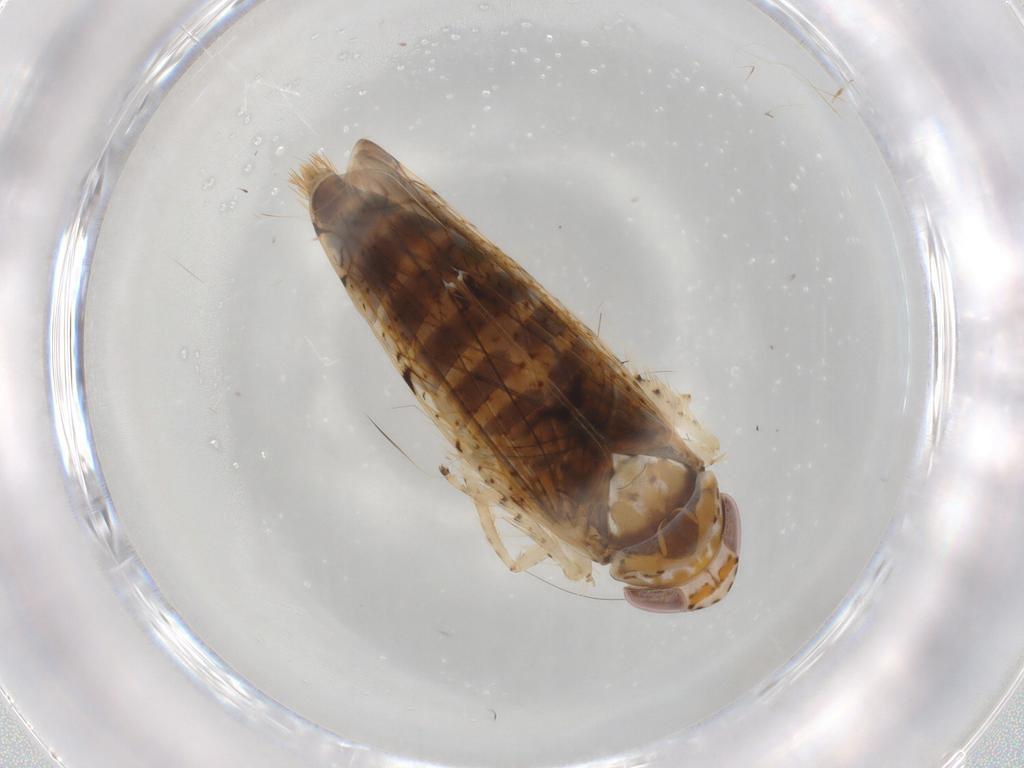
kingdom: Animalia
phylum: Arthropoda
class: Insecta
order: Hemiptera
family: Cicadellidae
